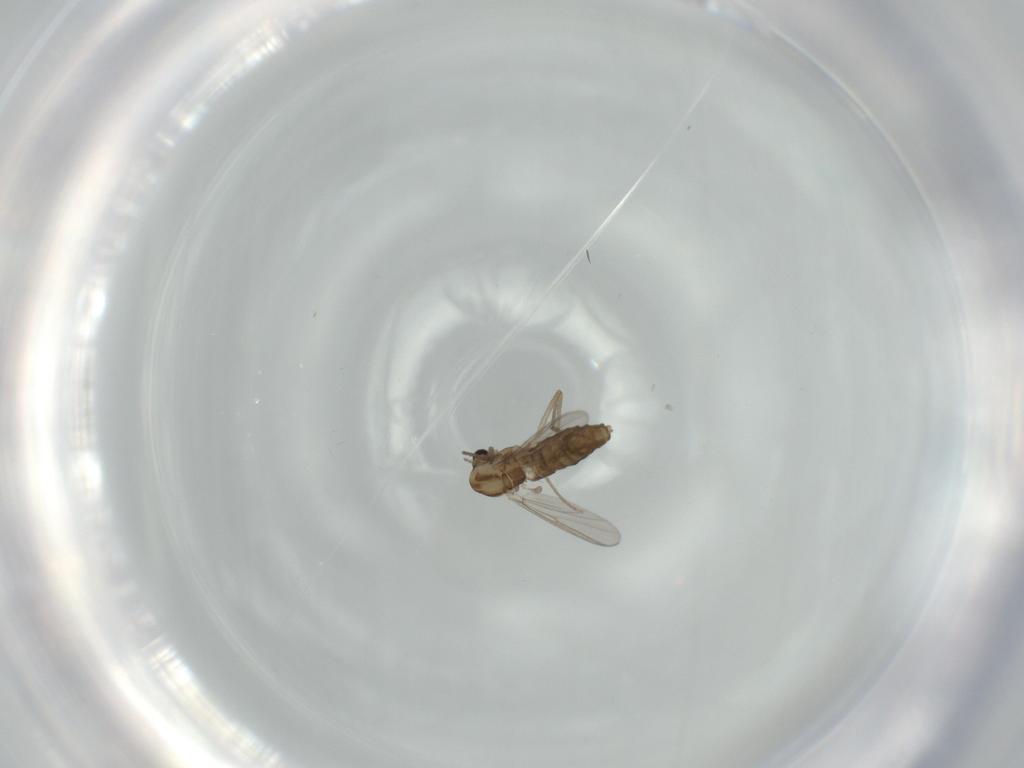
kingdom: Animalia
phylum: Arthropoda
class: Insecta
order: Diptera
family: Chironomidae
